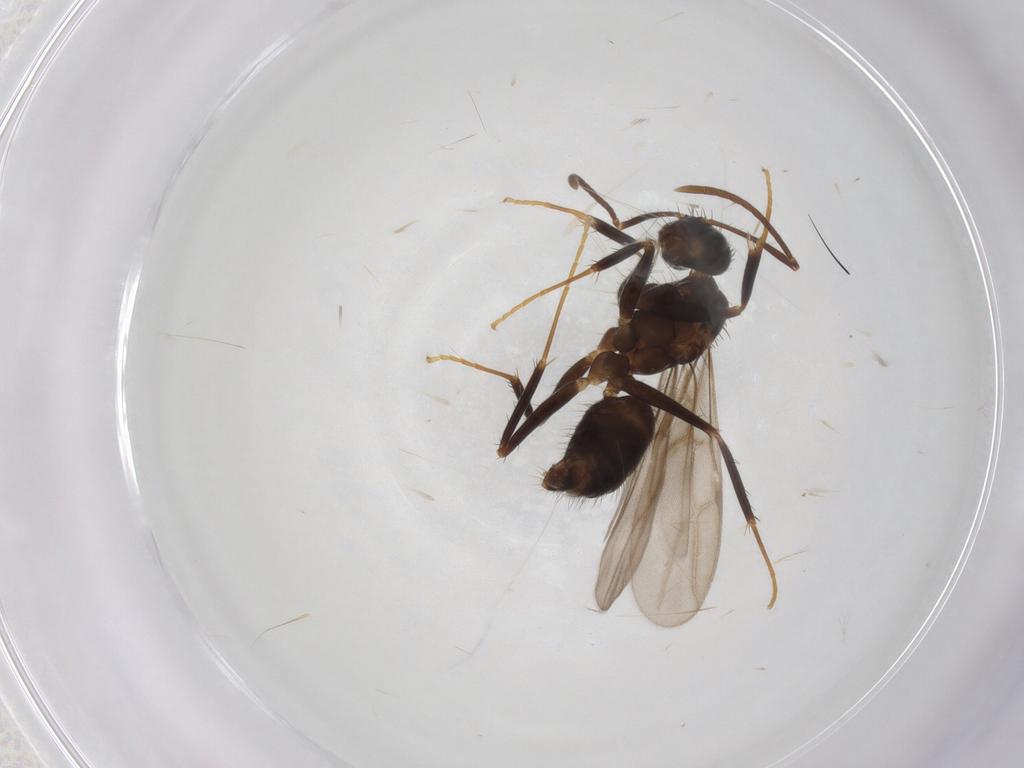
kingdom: Animalia
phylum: Arthropoda
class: Insecta
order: Hymenoptera
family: Formicidae
